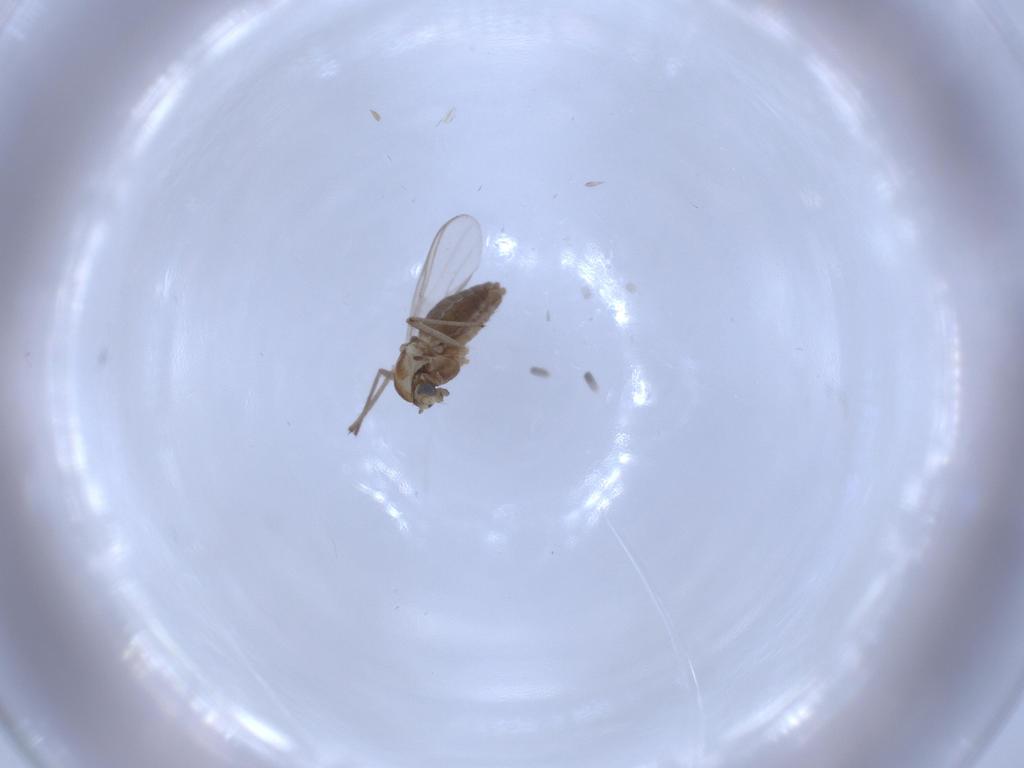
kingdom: Animalia
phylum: Arthropoda
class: Insecta
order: Diptera
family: Chironomidae
